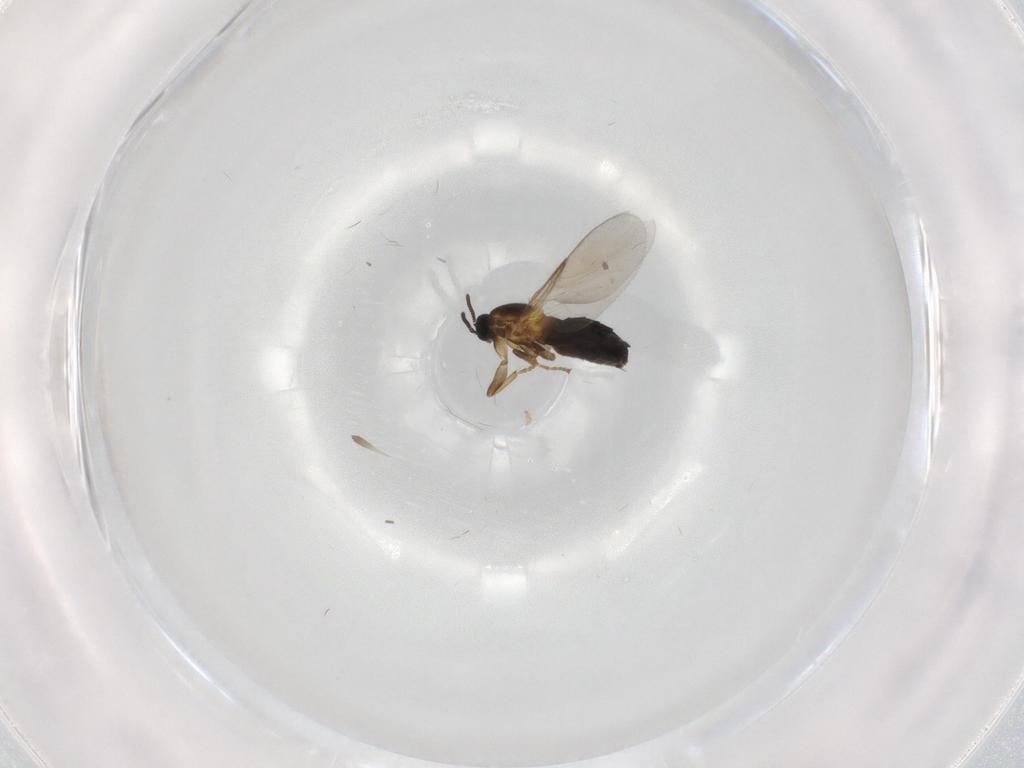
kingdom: Animalia
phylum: Arthropoda
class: Insecta
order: Diptera
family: Scatopsidae
